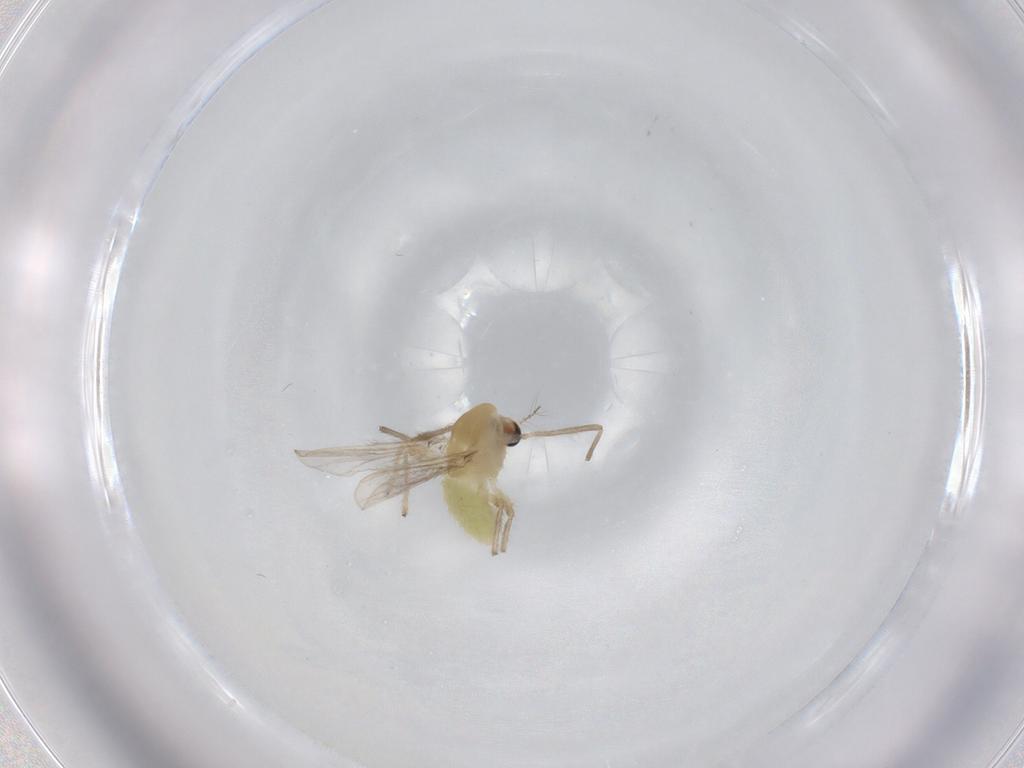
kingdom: Animalia
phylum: Arthropoda
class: Insecta
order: Diptera
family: Chironomidae
